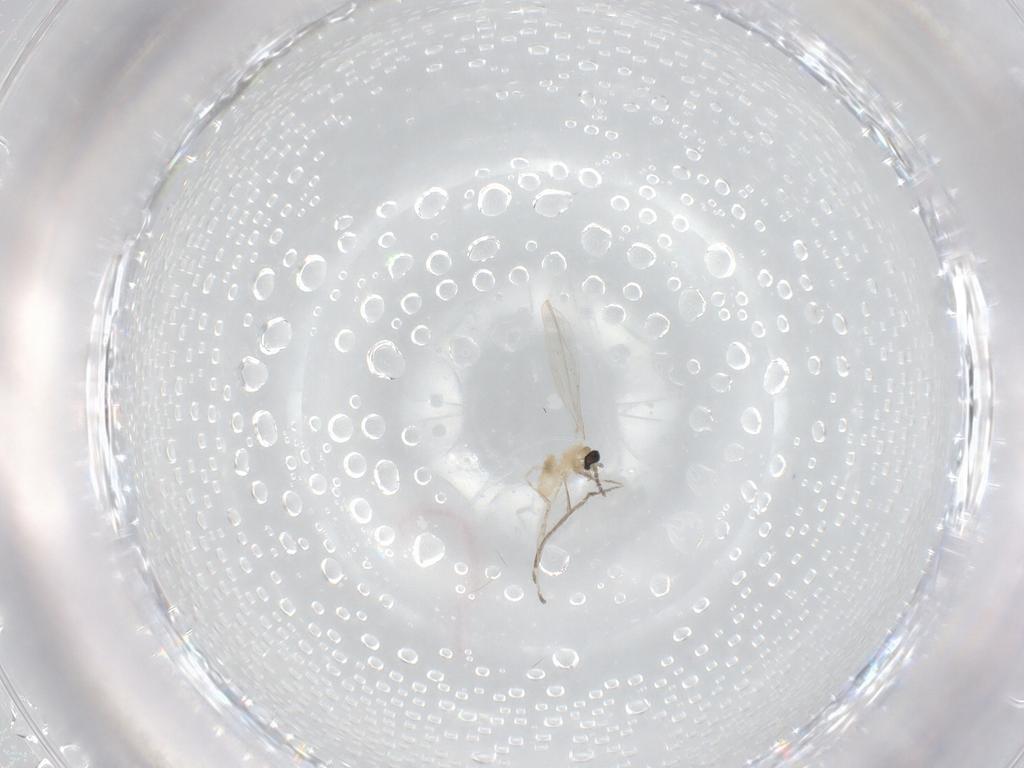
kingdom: Animalia
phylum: Arthropoda
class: Insecta
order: Diptera
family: Cecidomyiidae
